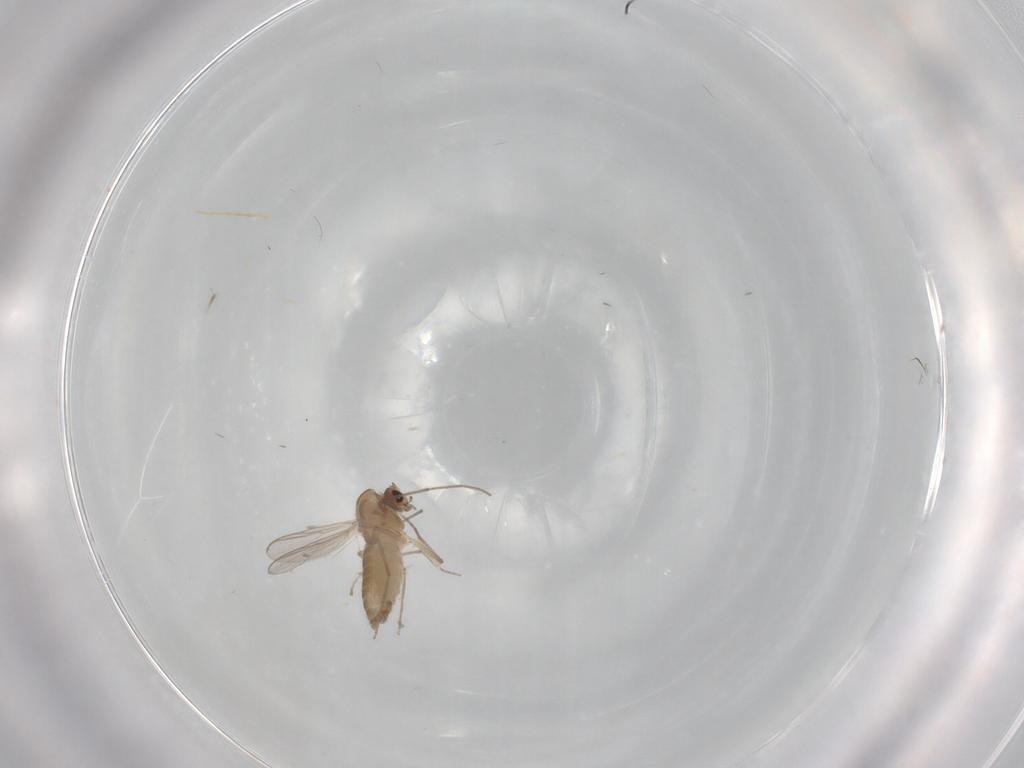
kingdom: Animalia
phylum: Arthropoda
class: Insecta
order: Diptera
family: Chironomidae
